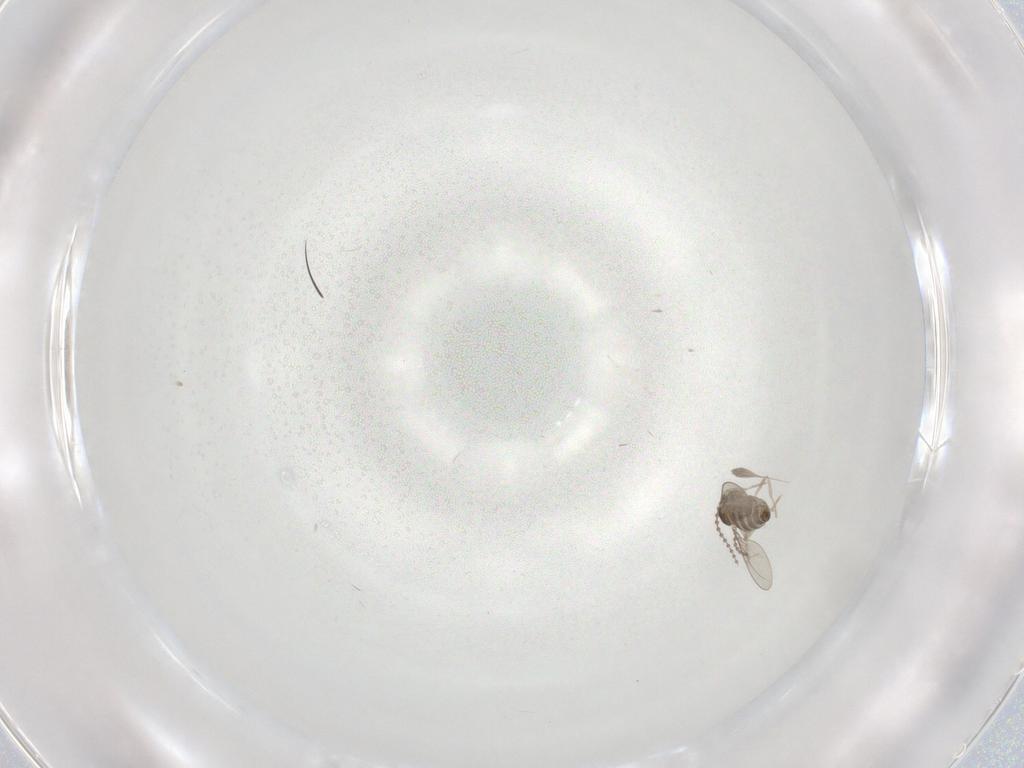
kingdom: Animalia
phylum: Arthropoda
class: Insecta
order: Diptera
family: Cecidomyiidae
